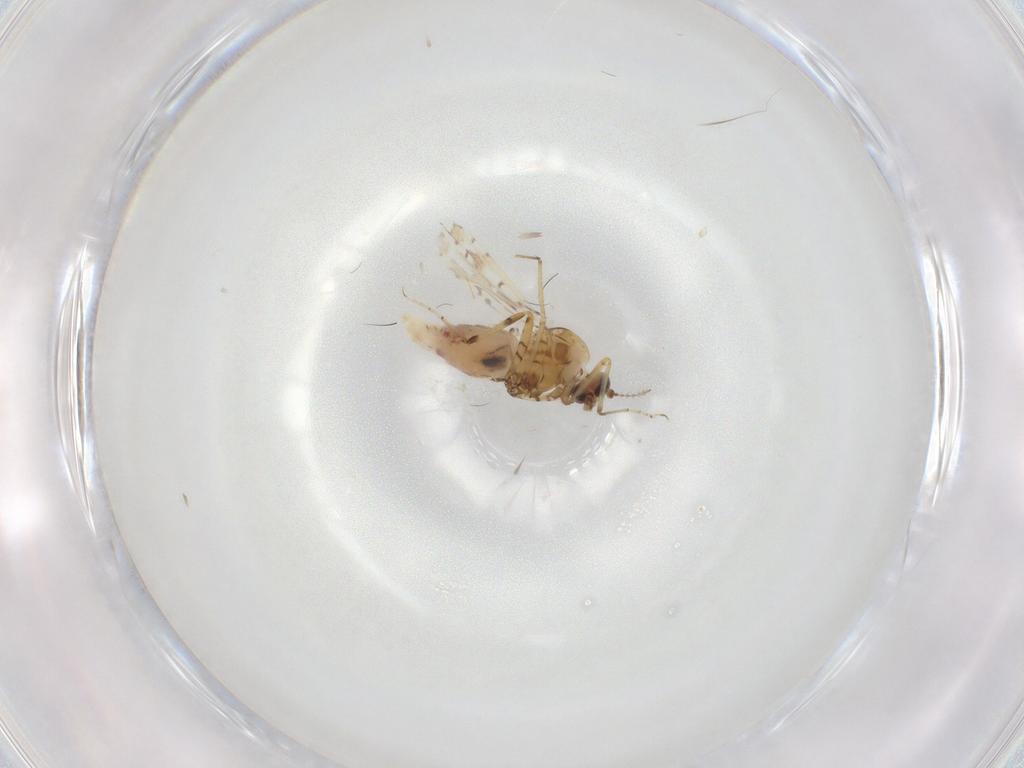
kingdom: Animalia
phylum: Arthropoda
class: Insecta
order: Diptera
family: Ceratopogonidae
